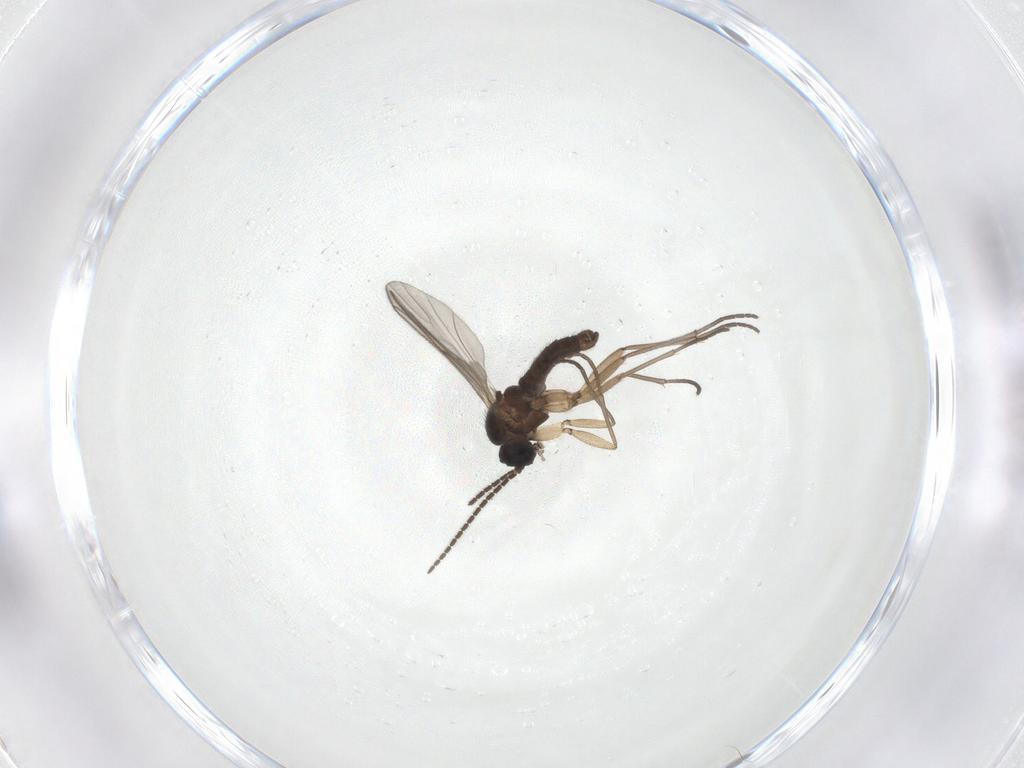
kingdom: Animalia
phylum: Arthropoda
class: Insecta
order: Diptera
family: Sciaridae
